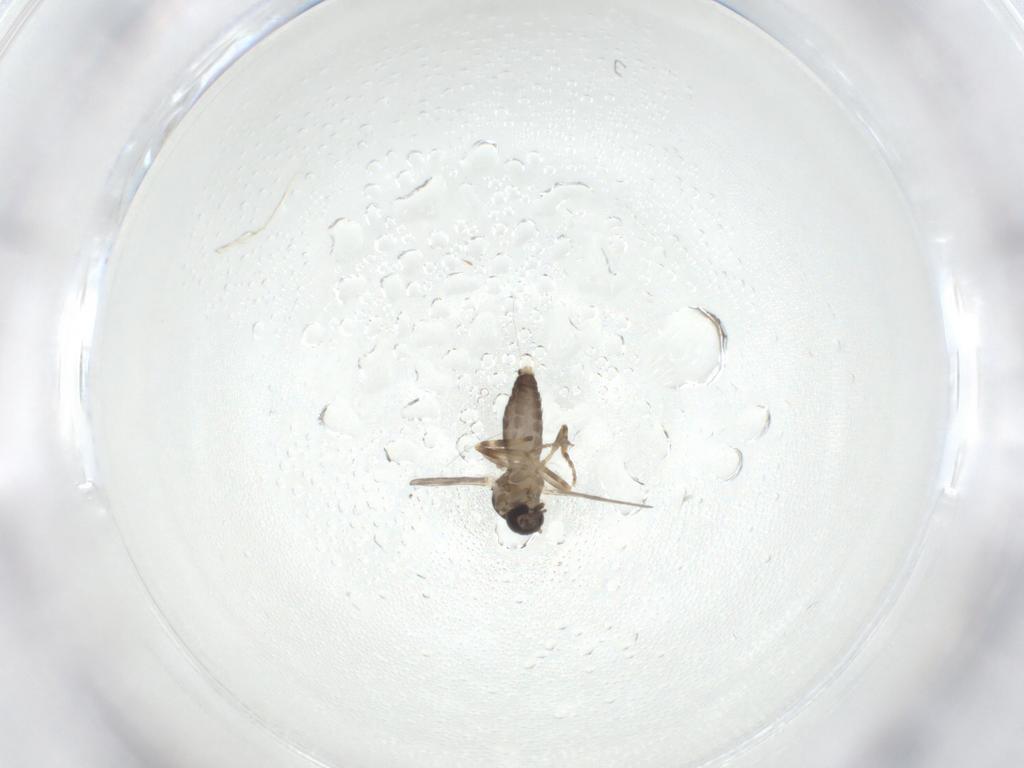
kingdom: Animalia
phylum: Arthropoda
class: Insecta
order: Diptera
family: Ceratopogonidae
